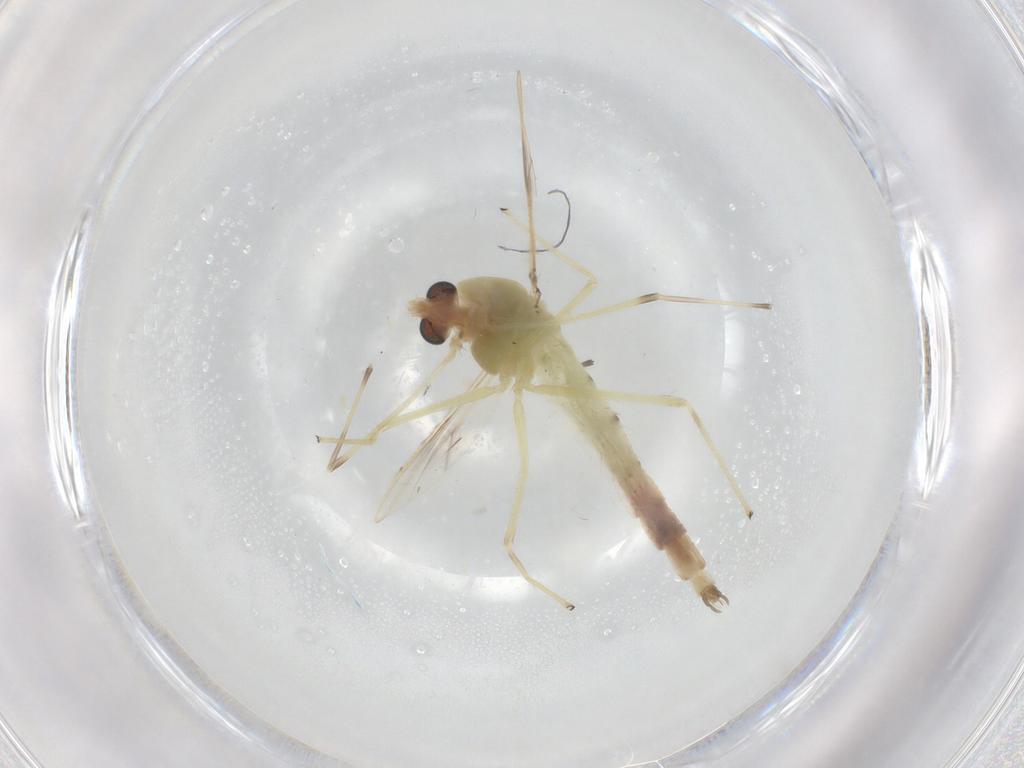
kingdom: Animalia
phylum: Arthropoda
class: Insecta
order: Diptera
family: Chironomidae
